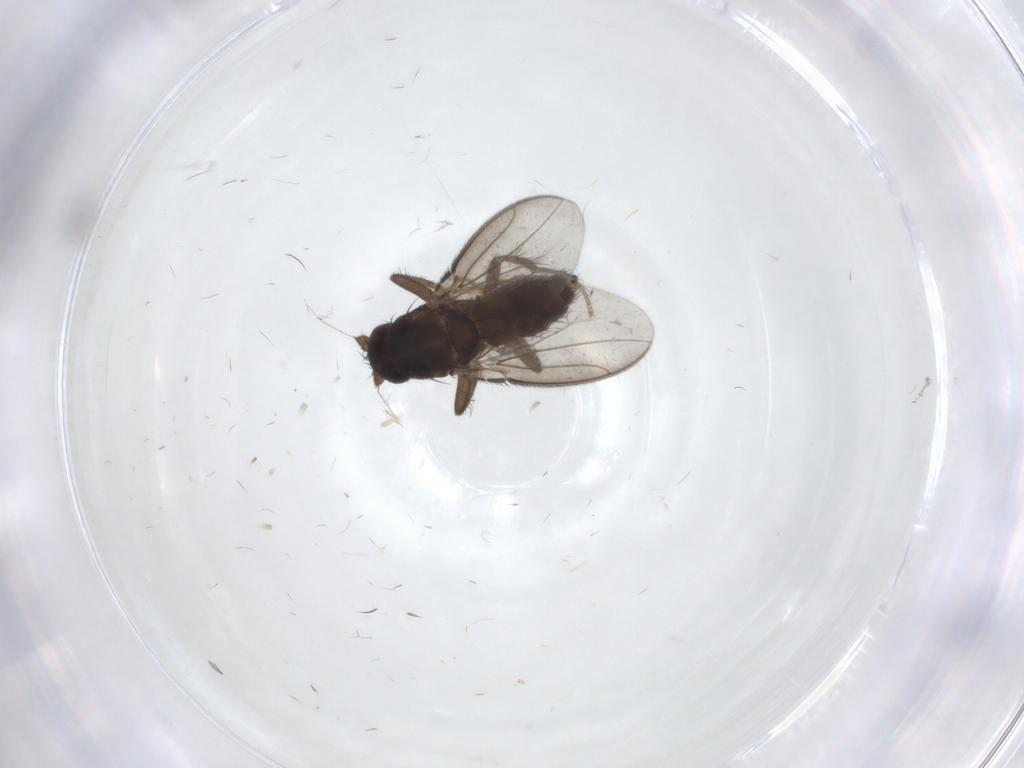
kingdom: Animalia
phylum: Arthropoda
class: Insecta
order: Diptera
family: Sphaeroceridae
